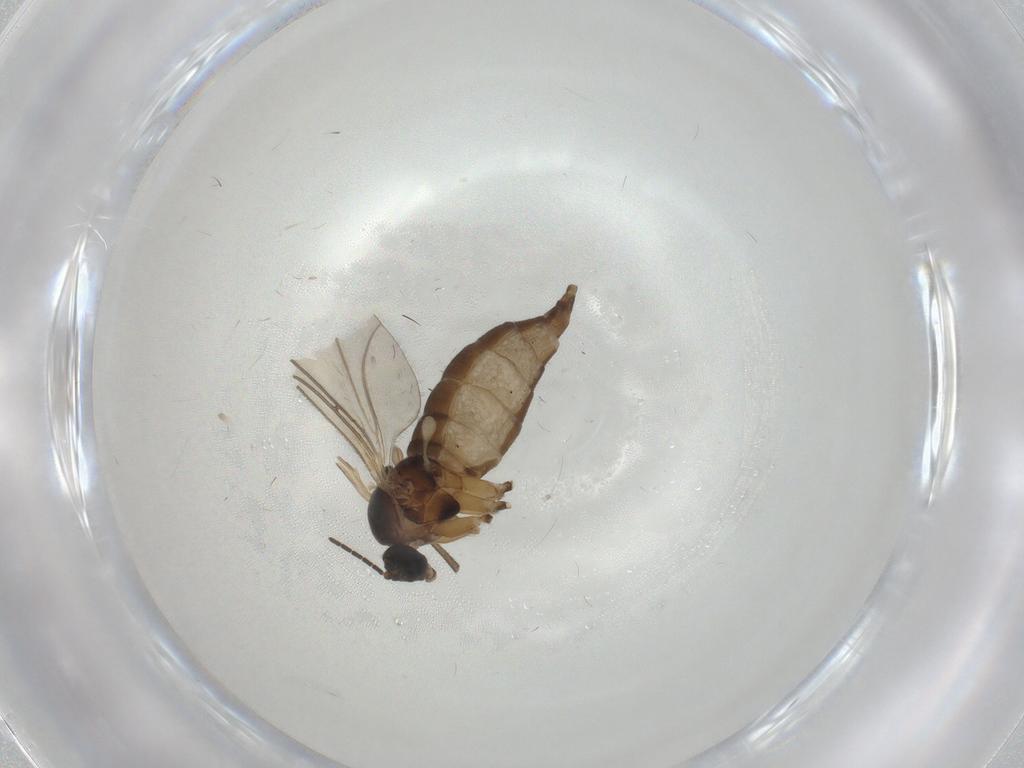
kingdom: Animalia
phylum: Arthropoda
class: Insecta
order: Diptera
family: Sciaridae
